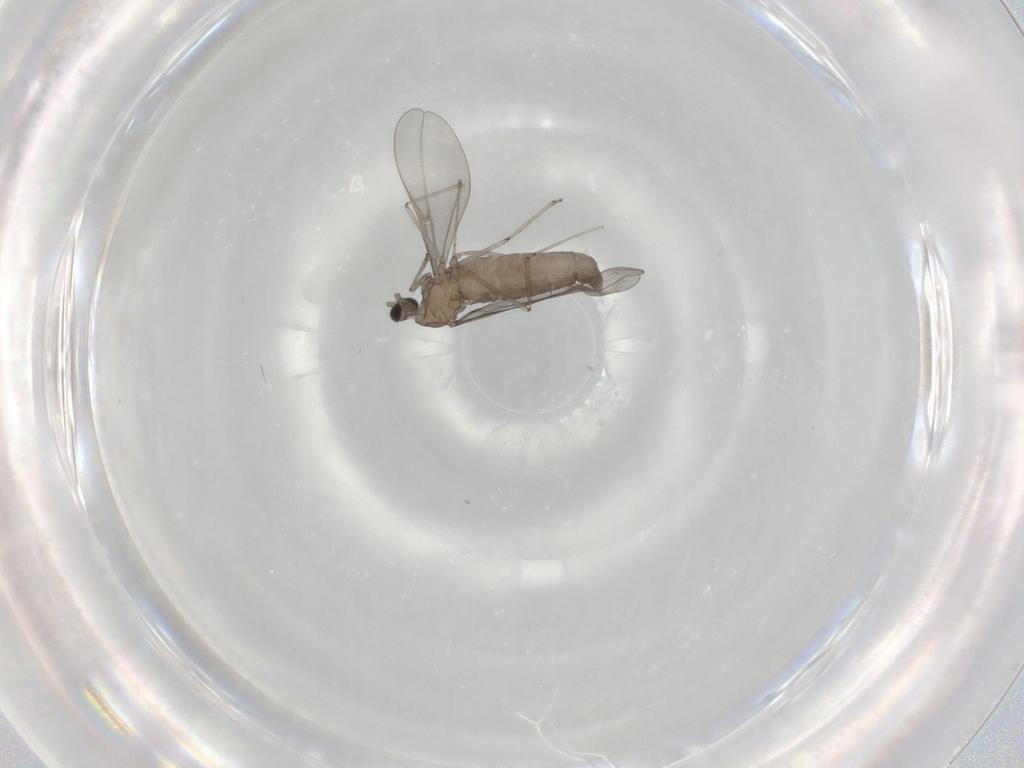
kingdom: Animalia
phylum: Arthropoda
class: Insecta
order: Diptera
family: Cecidomyiidae
